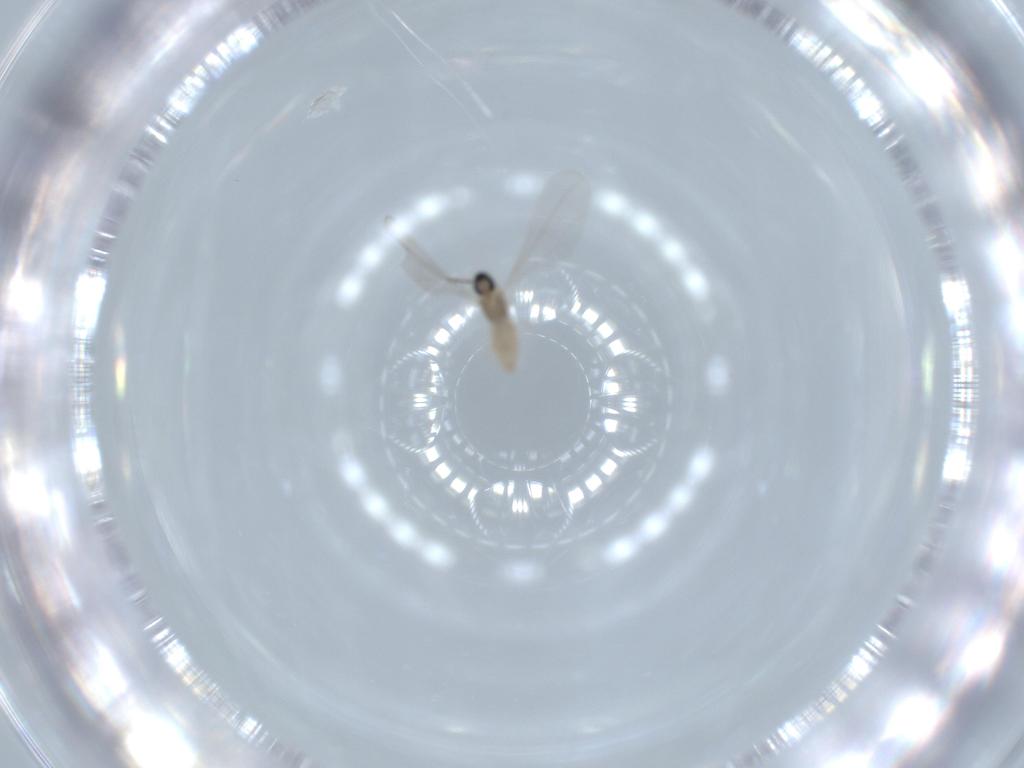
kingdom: Animalia
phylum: Arthropoda
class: Insecta
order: Diptera
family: Cecidomyiidae
